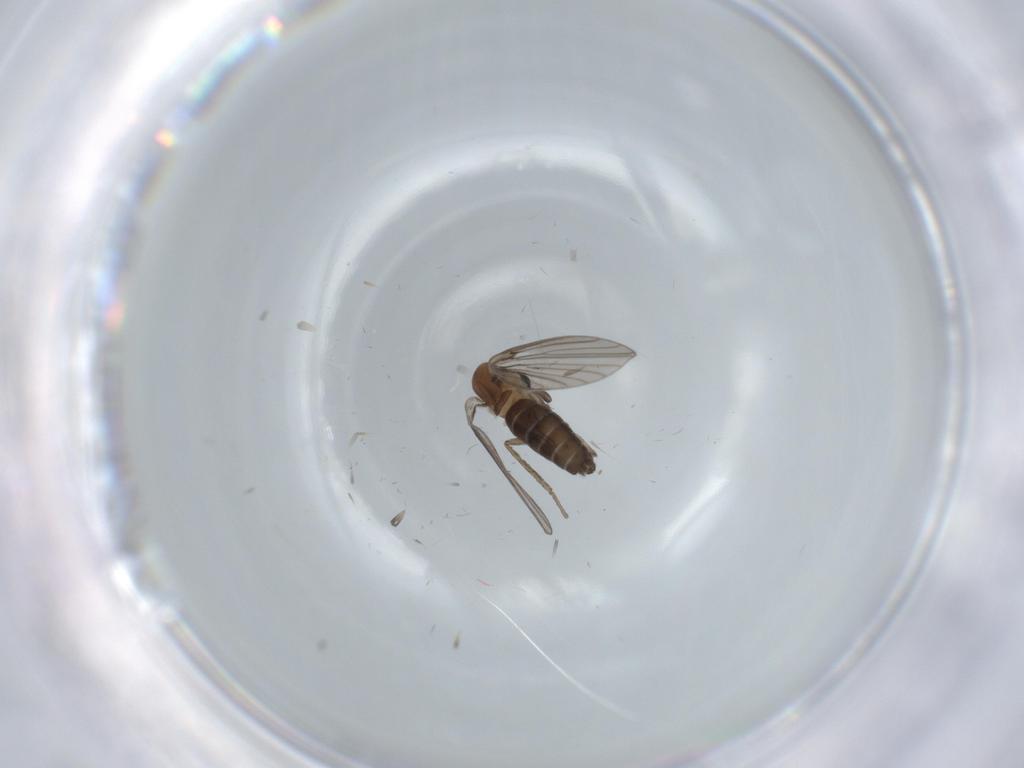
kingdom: Animalia
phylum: Arthropoda
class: Insecta
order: Diptera
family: Psychodidae
